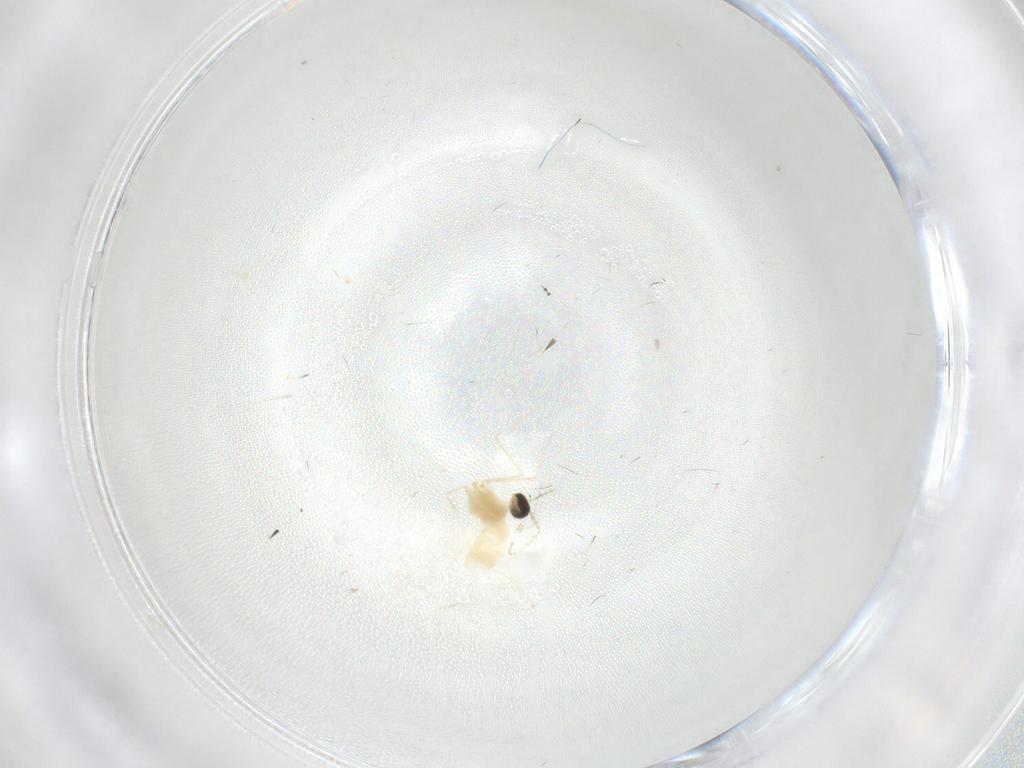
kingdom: Animalia
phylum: Arthropoda
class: Insecta
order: Diptera
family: Cecidomyiidae
